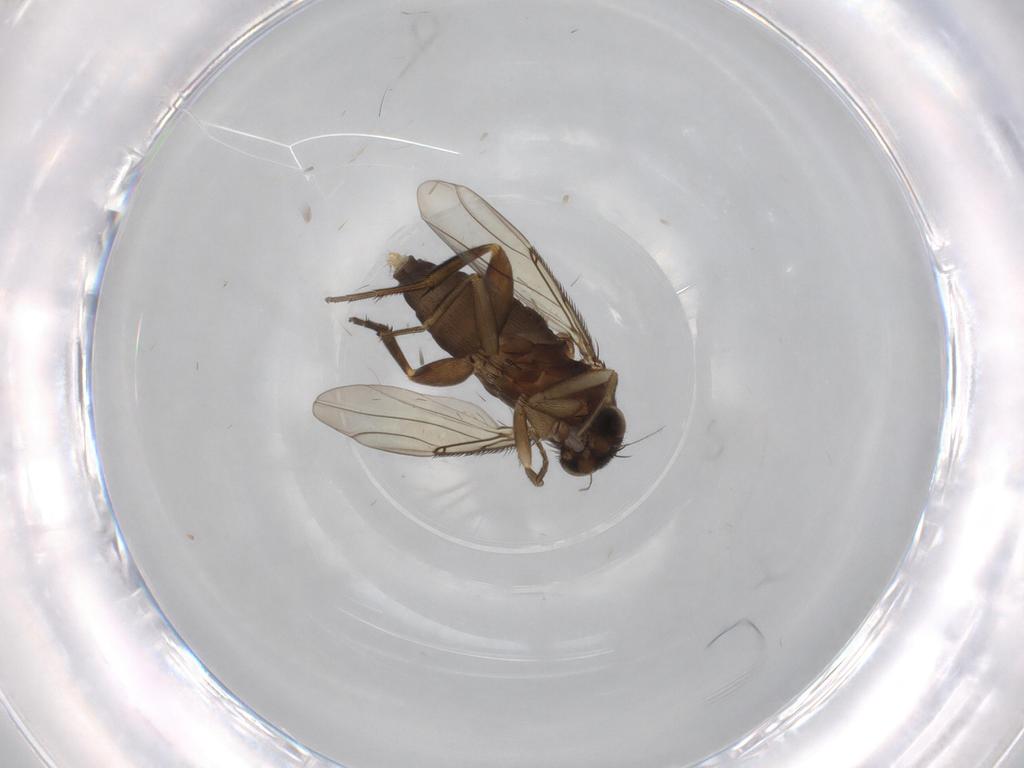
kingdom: Animalia
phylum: Arthropoda
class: Insecta
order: Diptera
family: Phoridae
